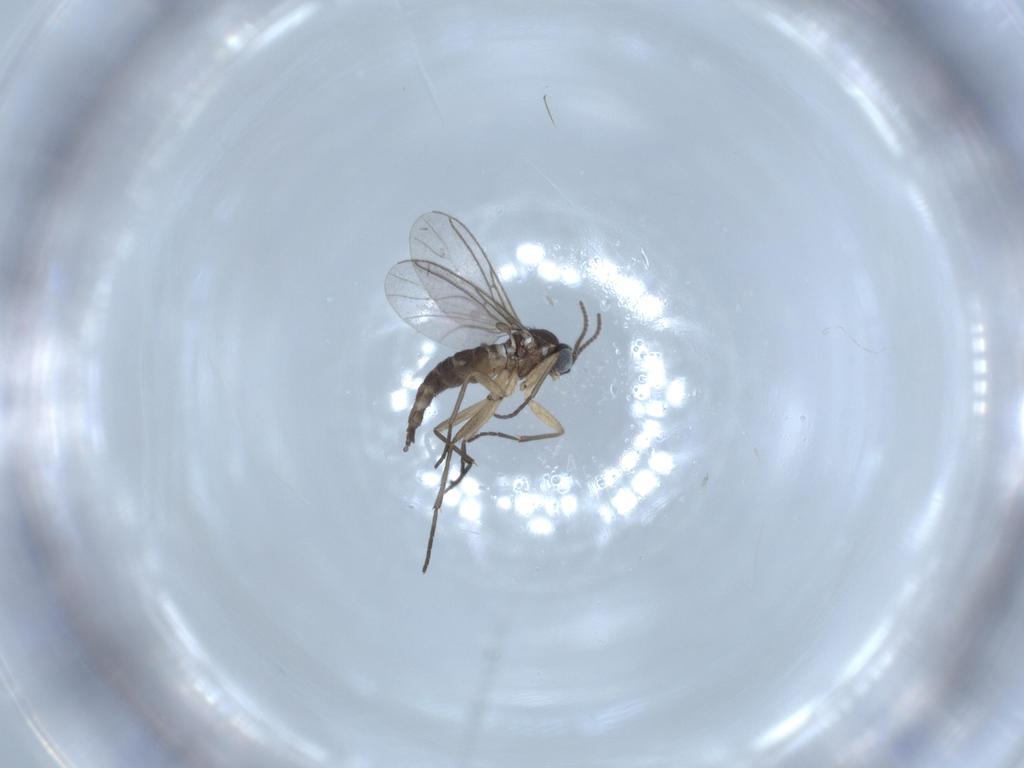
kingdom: Animalia
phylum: Arthropoda
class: Insecta
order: Diptera
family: Sciaridae
